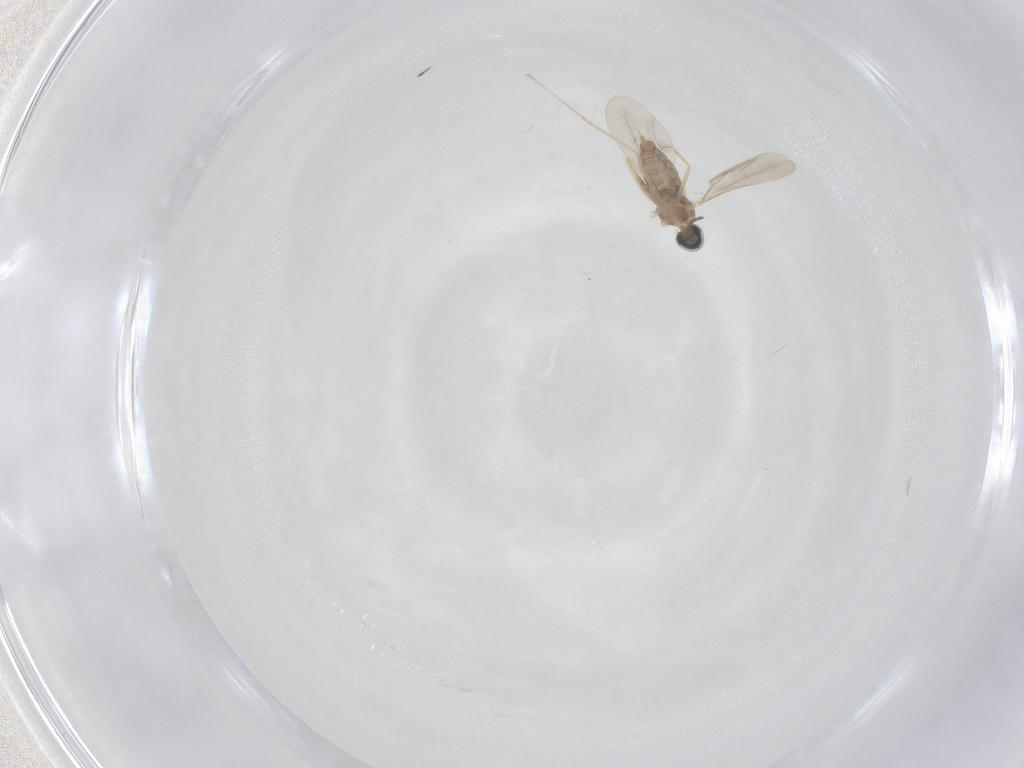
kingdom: Animalia
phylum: Arthropoda
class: Insecta
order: Diptera
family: Cecidomyiidae
